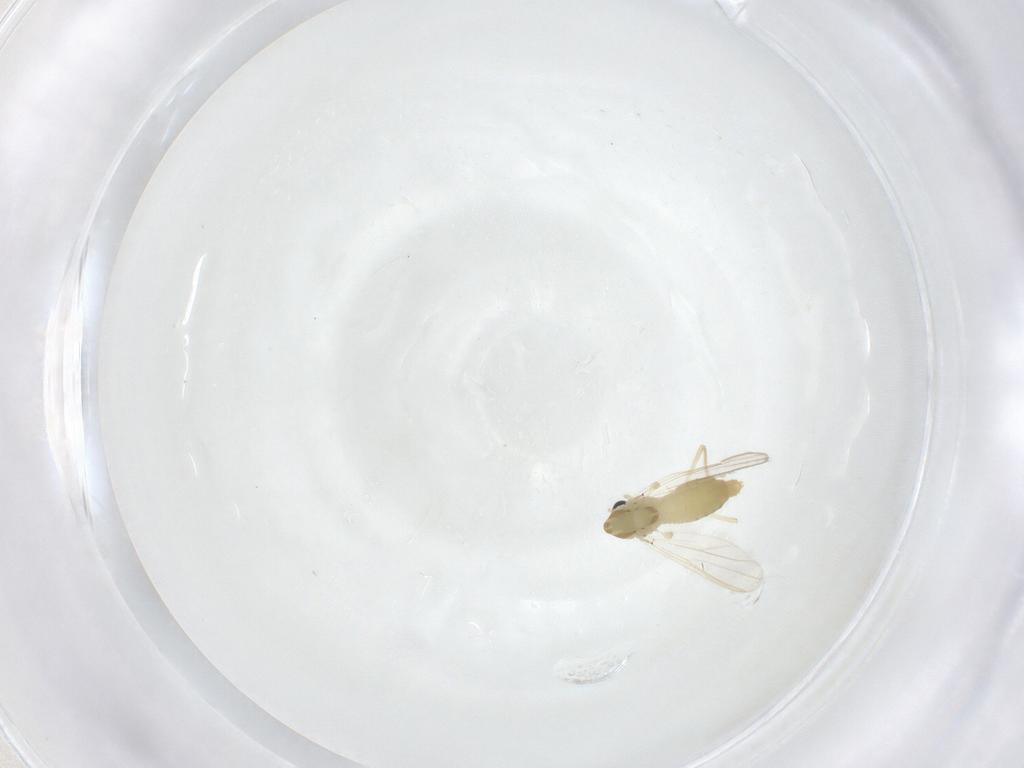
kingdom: Animalia
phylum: Arthropoda
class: Insecta
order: Diptera
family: Chironomidae
